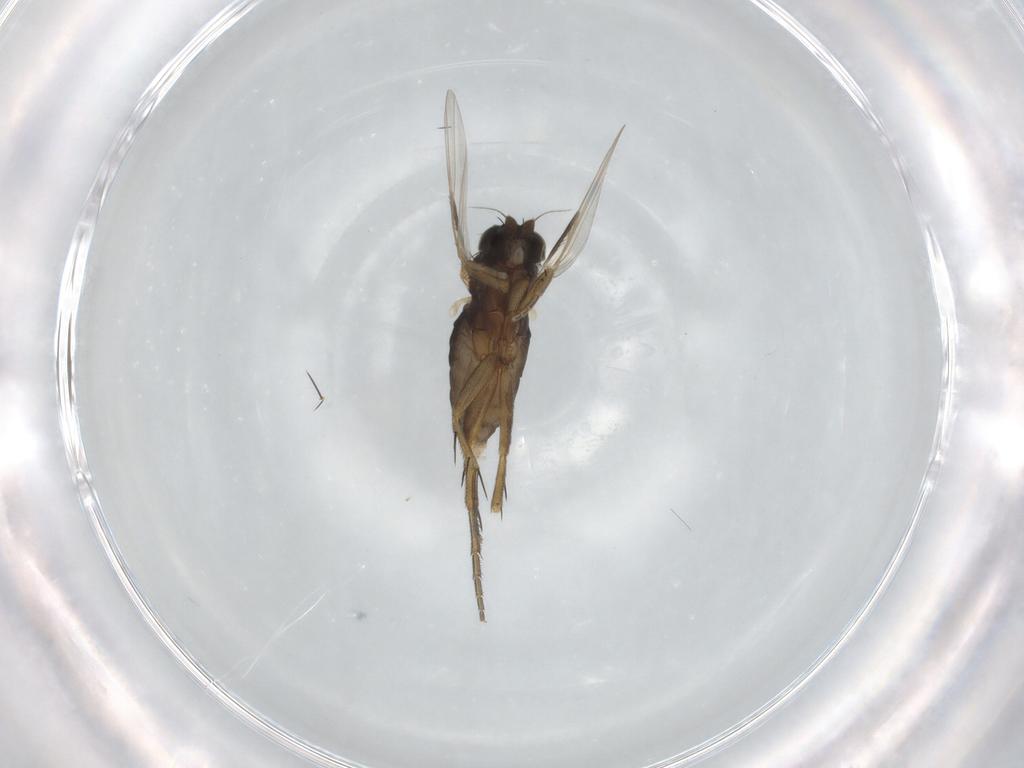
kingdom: Animalia
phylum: Arthropoda
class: Insecta
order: Diptera
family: Phoridae
